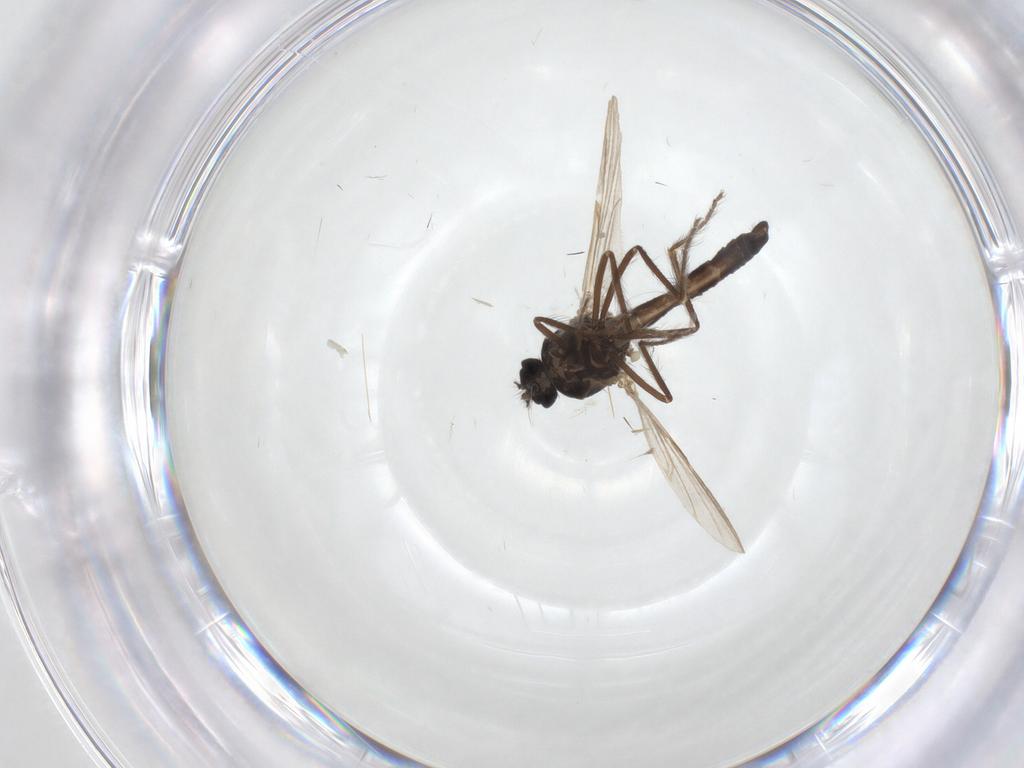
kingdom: Animalia
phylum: Arthropoda
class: Insecta
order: Diptera
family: Ceratopogonidae
